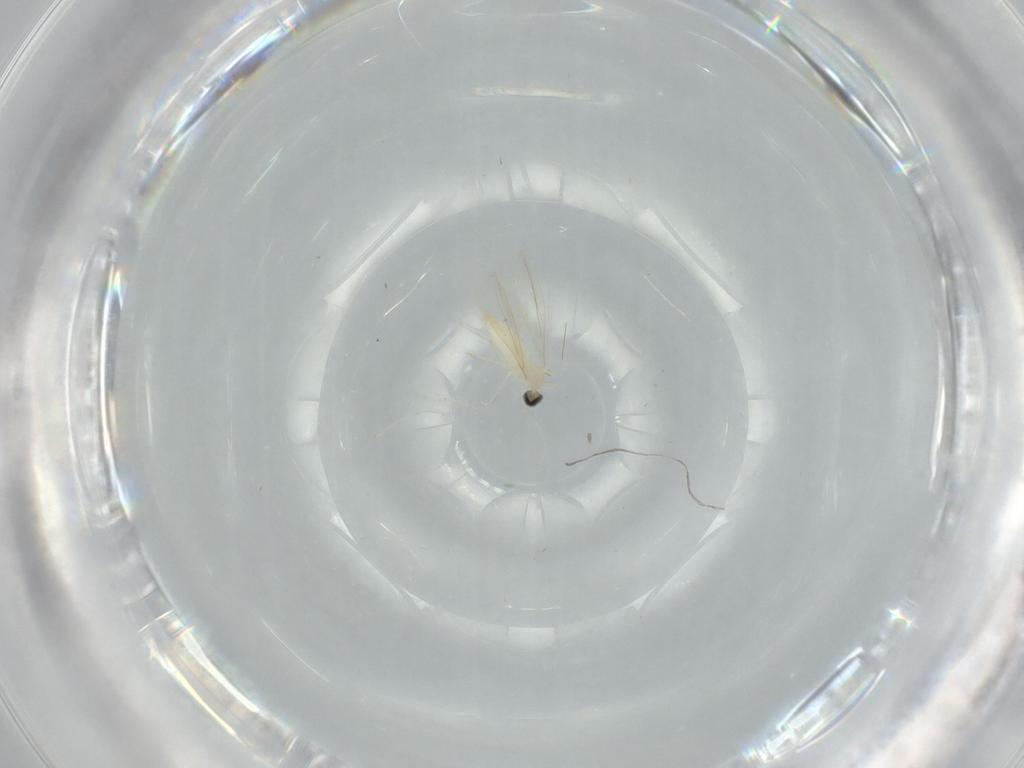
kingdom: Animalia
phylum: Arthropoda
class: Insecta
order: Diptera
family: Cecidomyiidae
